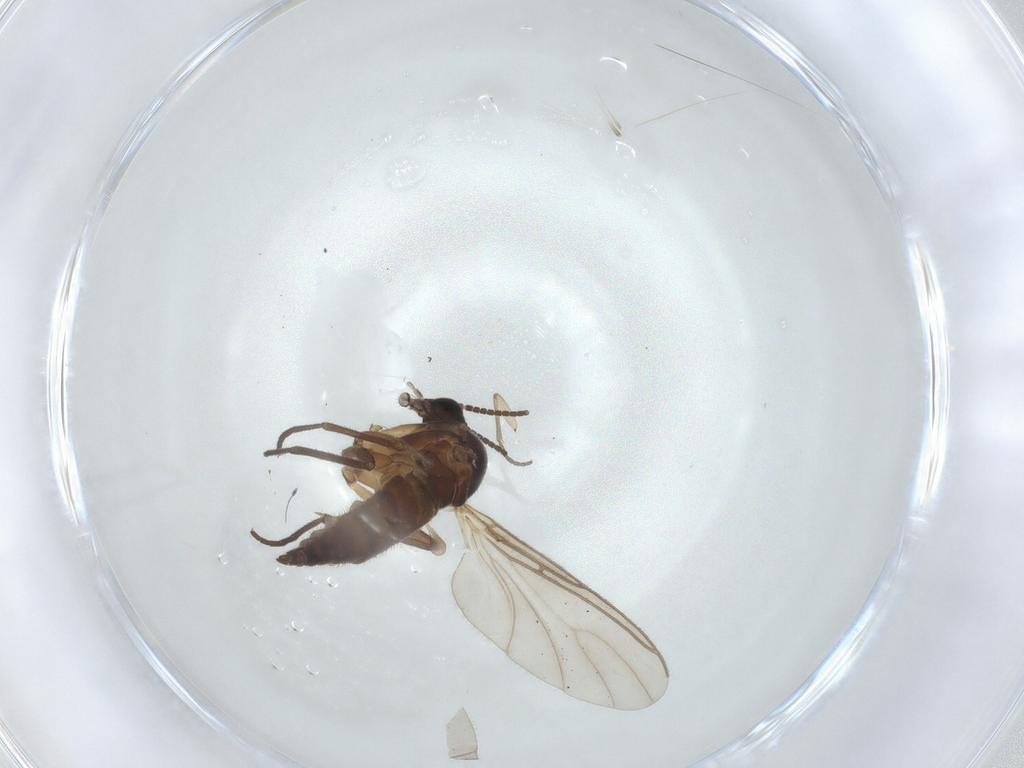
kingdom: Animalia
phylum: Arthropoda
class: Insecta
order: Diptera
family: Sciaridae
